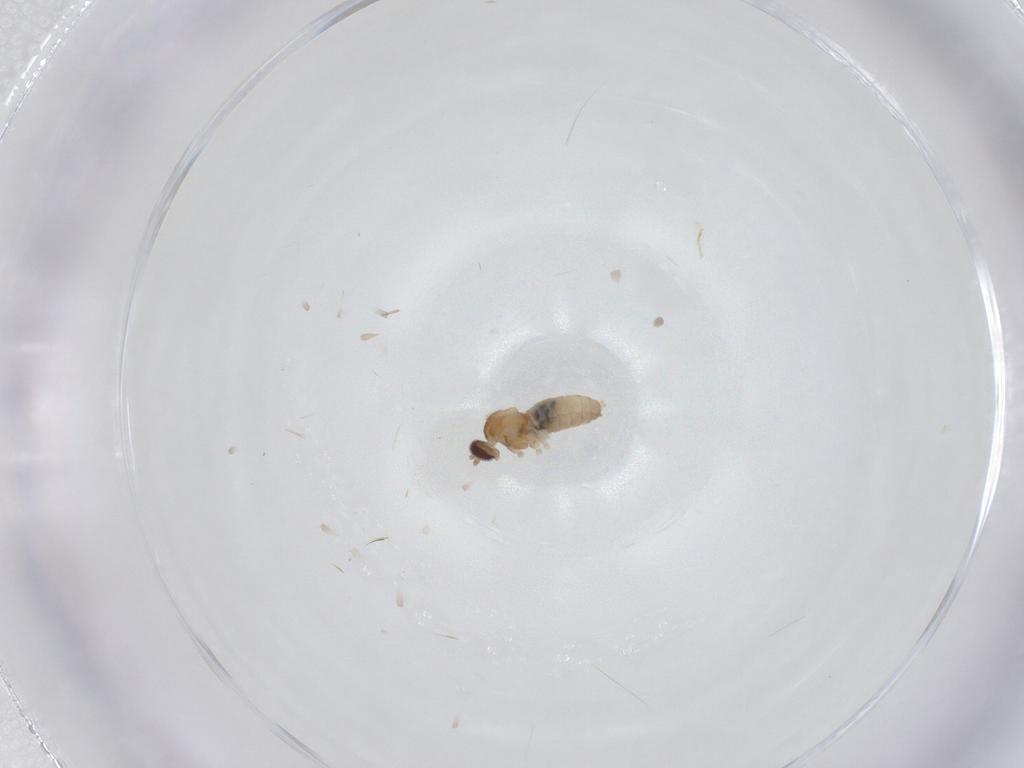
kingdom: Animalia
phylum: Arthropoda
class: Insecta
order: Diptera
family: Cecidomyiidae
